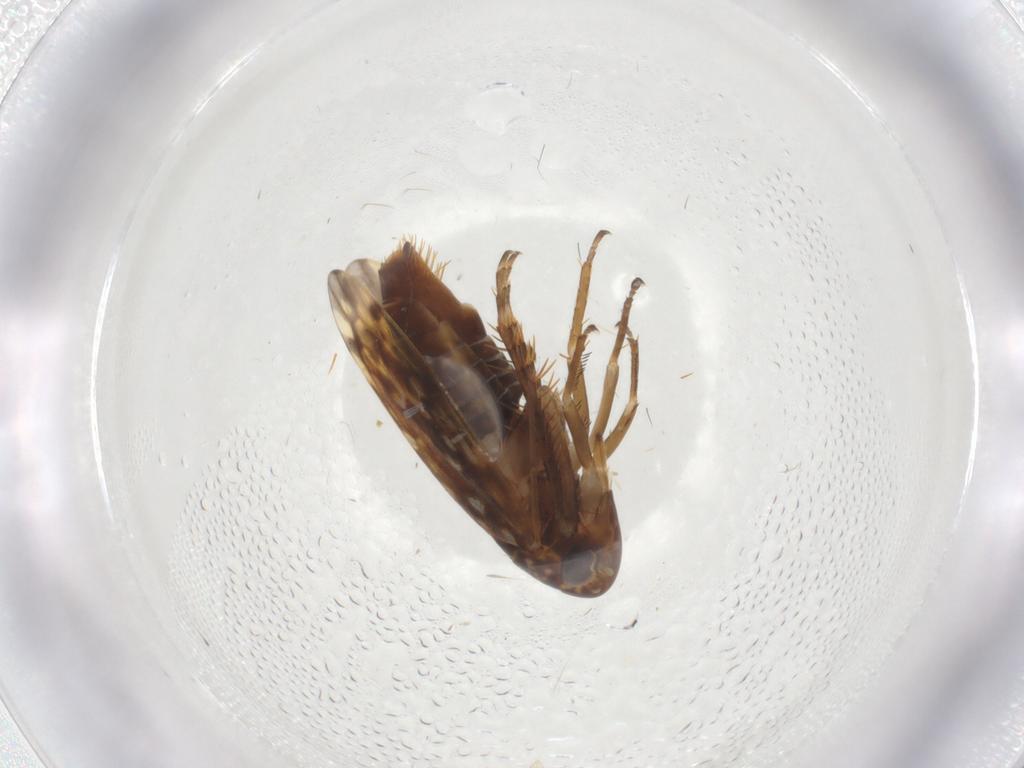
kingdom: Animalia
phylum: Arthropoda
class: Insecta
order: Hemiptera
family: Cicadellidae
